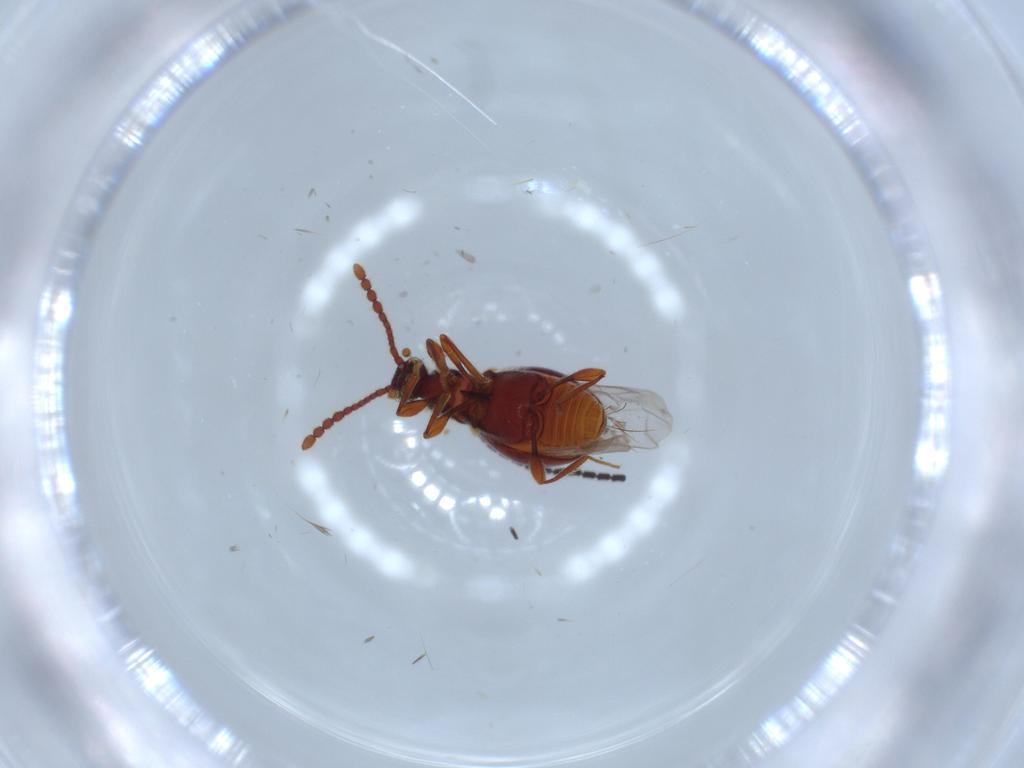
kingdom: Animalia
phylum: Arthropoda
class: Insecta
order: Coleoptera
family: Staphylinidae
